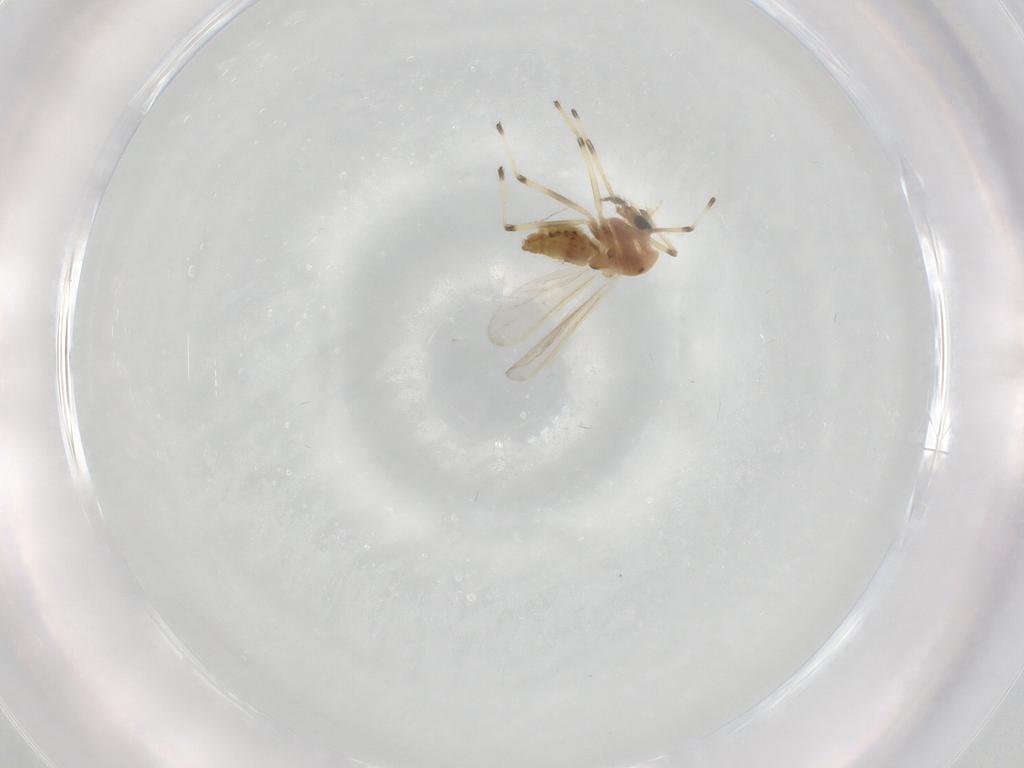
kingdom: Animalia
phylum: Arthropoda
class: Insecta
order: Diptera
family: Chironomidae
